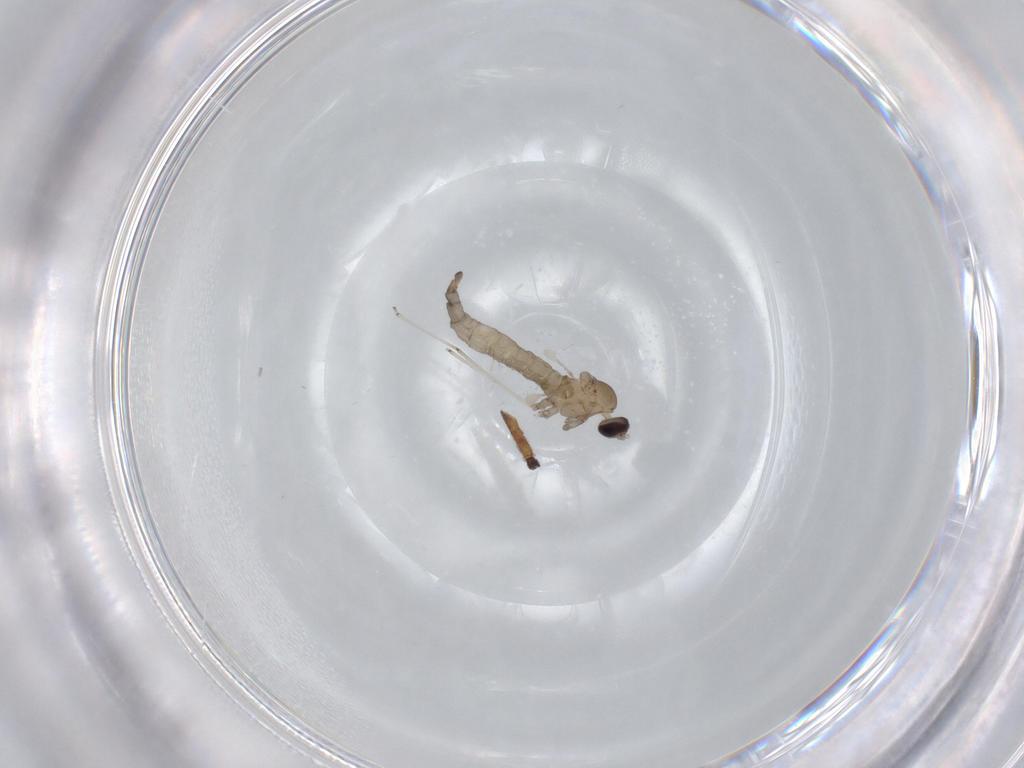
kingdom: Animalia
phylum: Arthropoda
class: Insecta
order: Diptera
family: Cecidomyiidae
